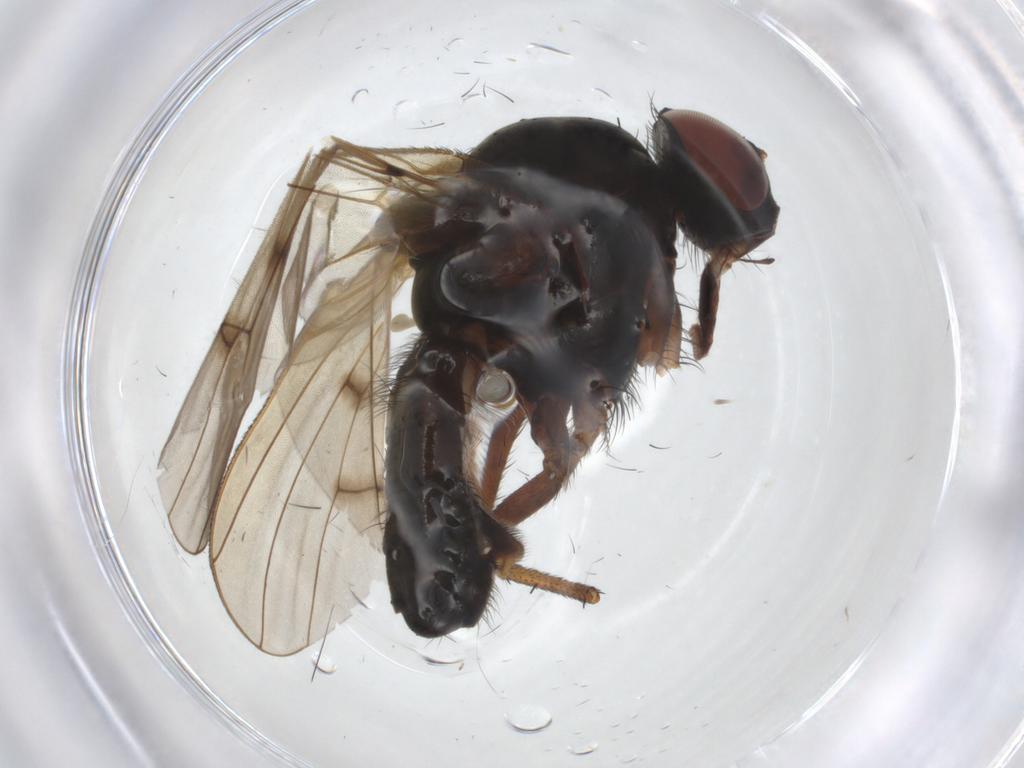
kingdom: Animalia
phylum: Arthropoda
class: Insecta
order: Diptera
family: Anthomyiidae
